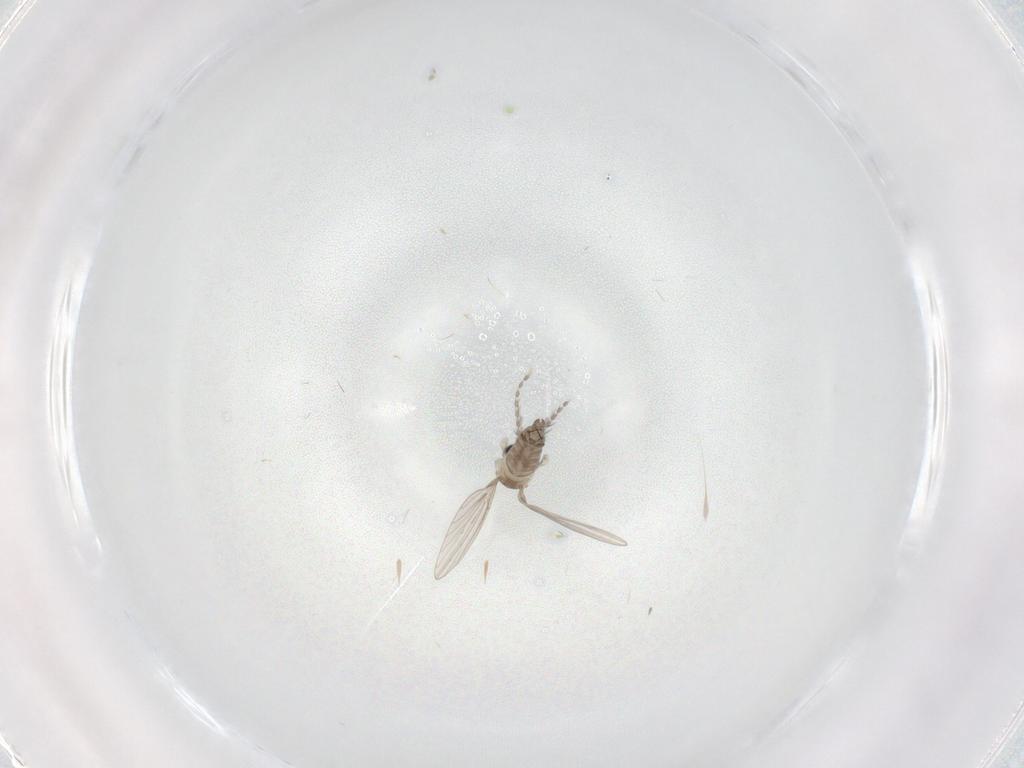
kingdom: Animalia
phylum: Arthropoda
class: Insecta
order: Diptera
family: Psychodidae
